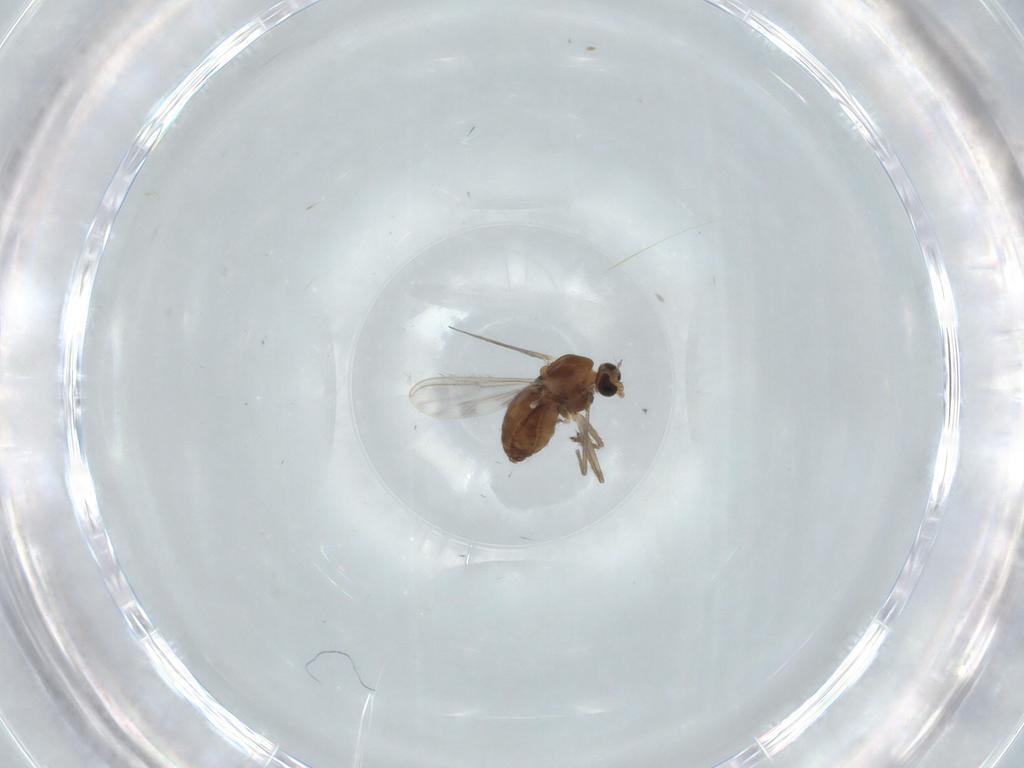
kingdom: Animalia
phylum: Arthropoda
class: Insecta
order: Diptera
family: Chironomidae
